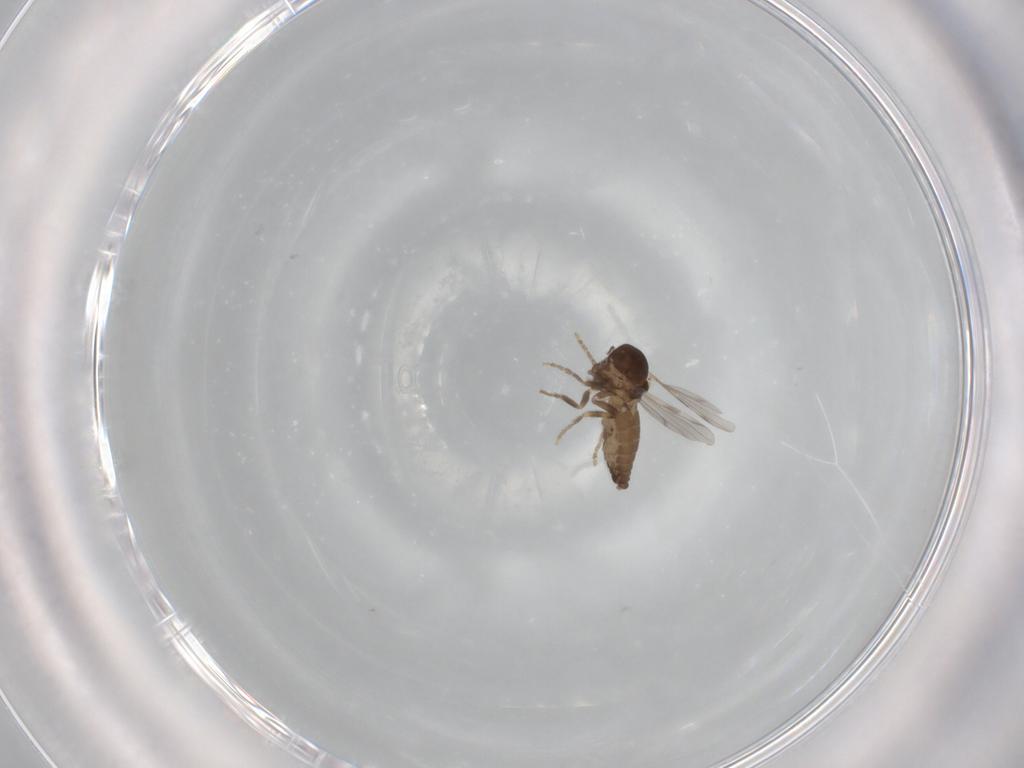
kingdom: Animalia
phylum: Arthropoda
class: Insecta
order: Diptera
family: Ceratopogonidae
